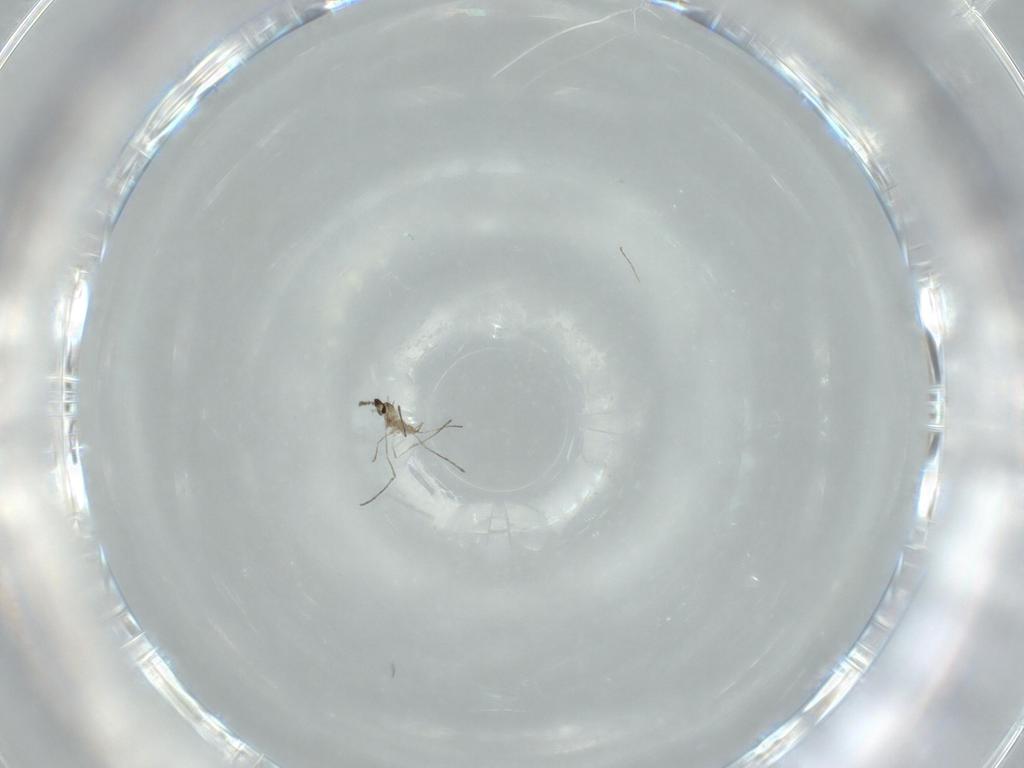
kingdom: Animalia
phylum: Arthropoda
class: Insecta
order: Diptera
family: Cecidomyiidae
